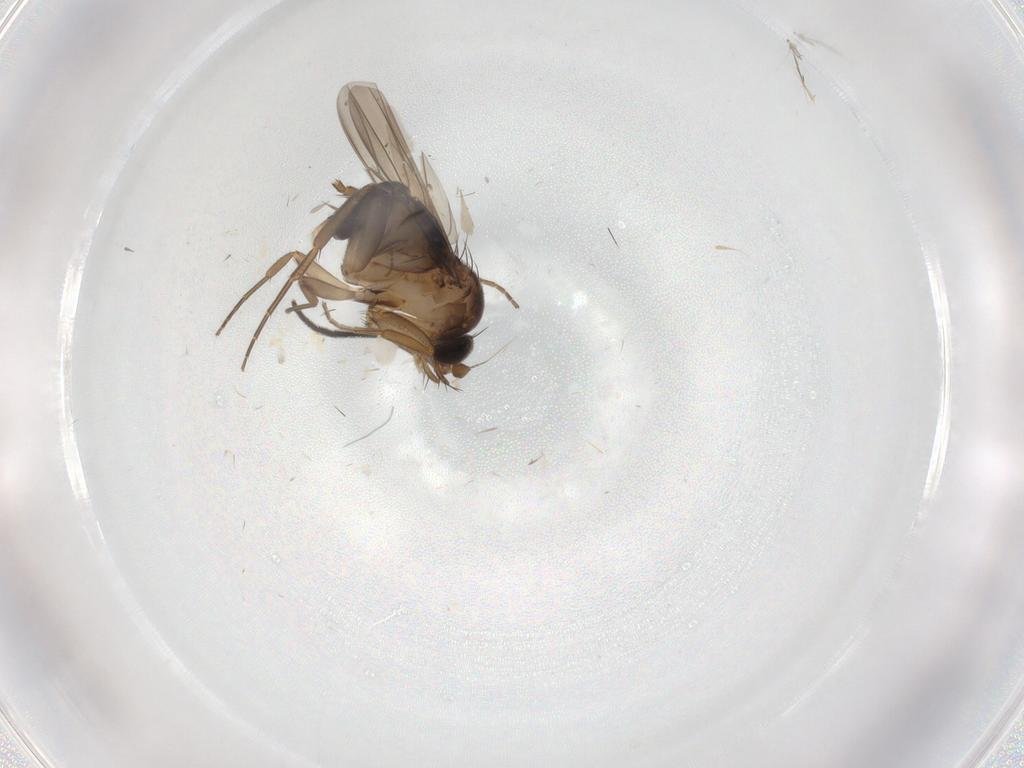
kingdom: Animalia
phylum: Arthropoda
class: Insecta
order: Diptera
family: Phoridae
